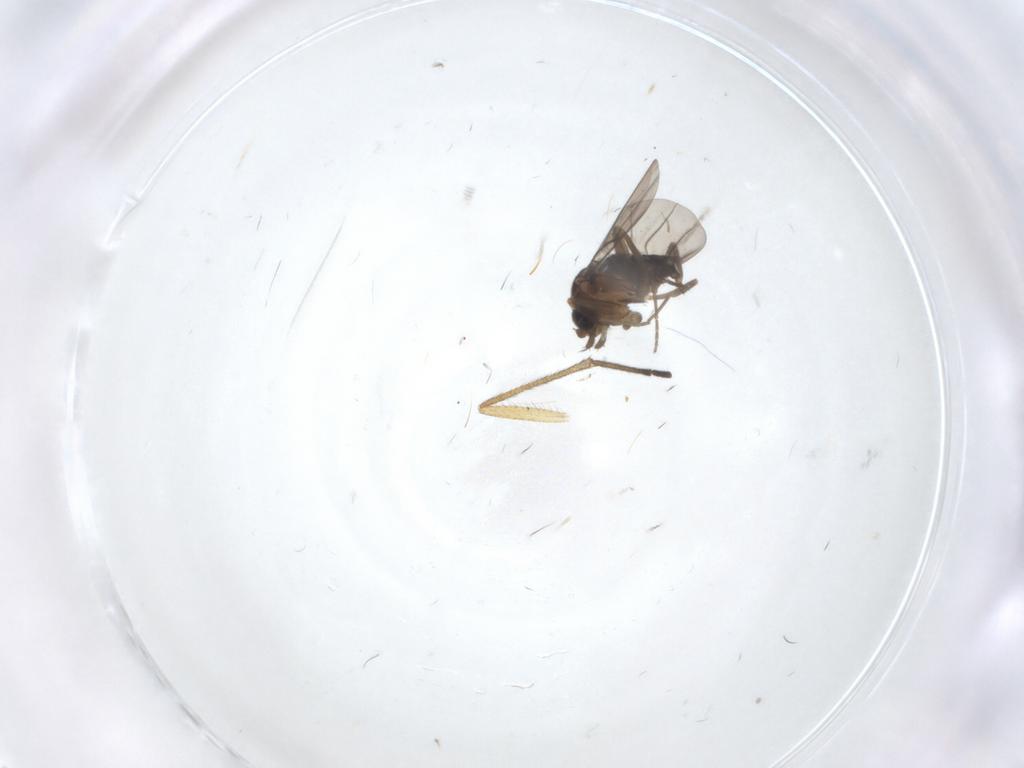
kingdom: Animalia
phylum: Arthropoda
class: Insecta
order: Diptera
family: Phoridae
